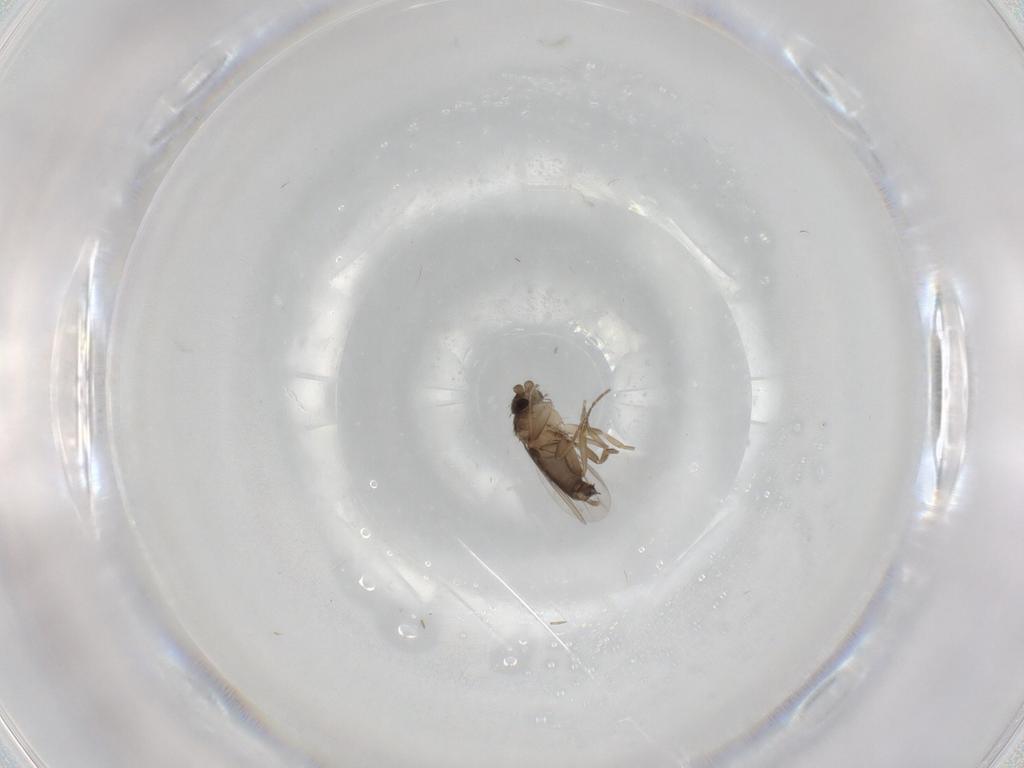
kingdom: Animalia
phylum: Arthropoda
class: Insecta
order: Diptera
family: Phoridae
